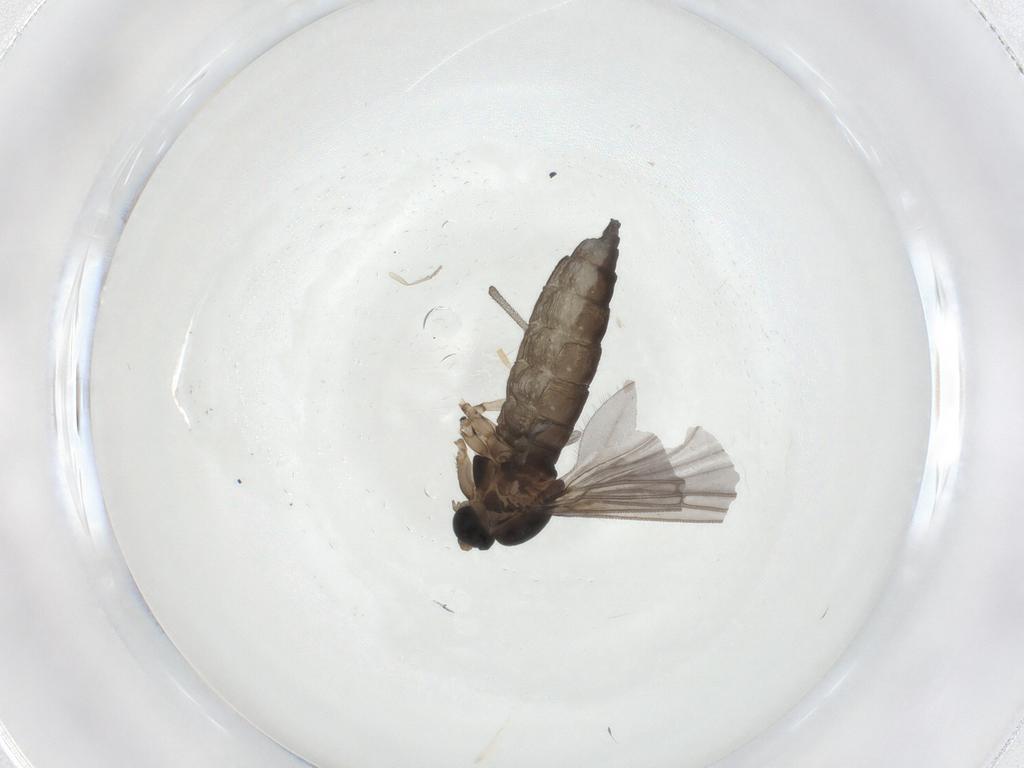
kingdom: Animalia
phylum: Arthropoda
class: Insecta
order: Diptera
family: Sciaridae
